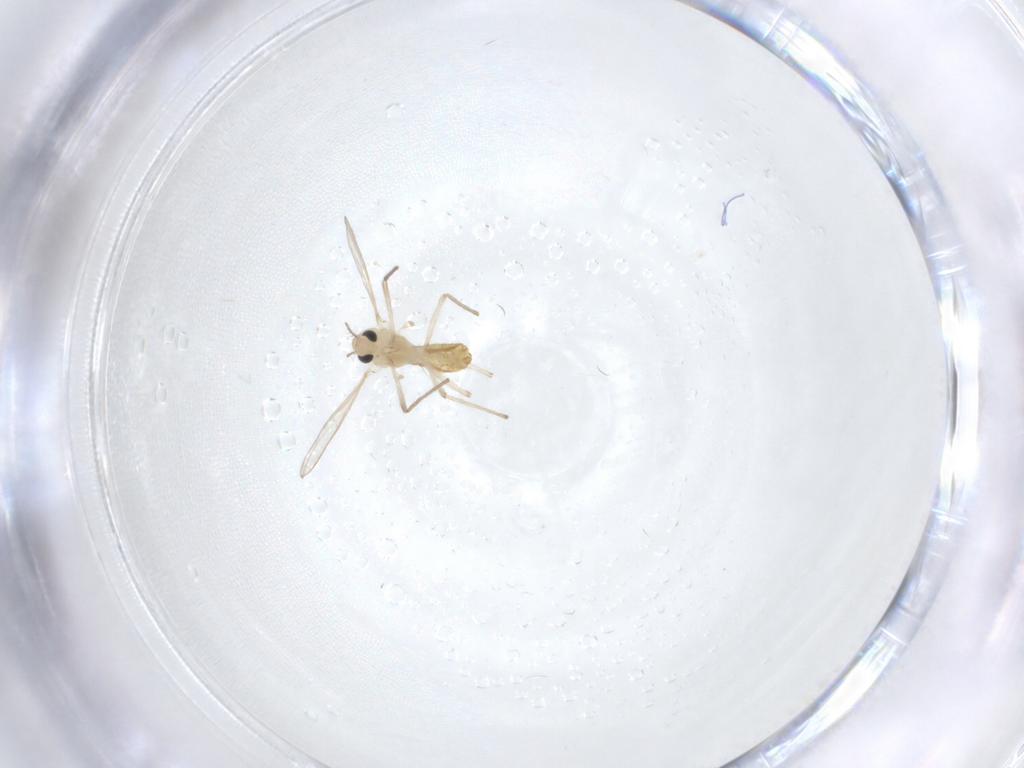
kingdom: Animalia
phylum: Arthropoda
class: Insecta
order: Diptera
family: Chironomidae
